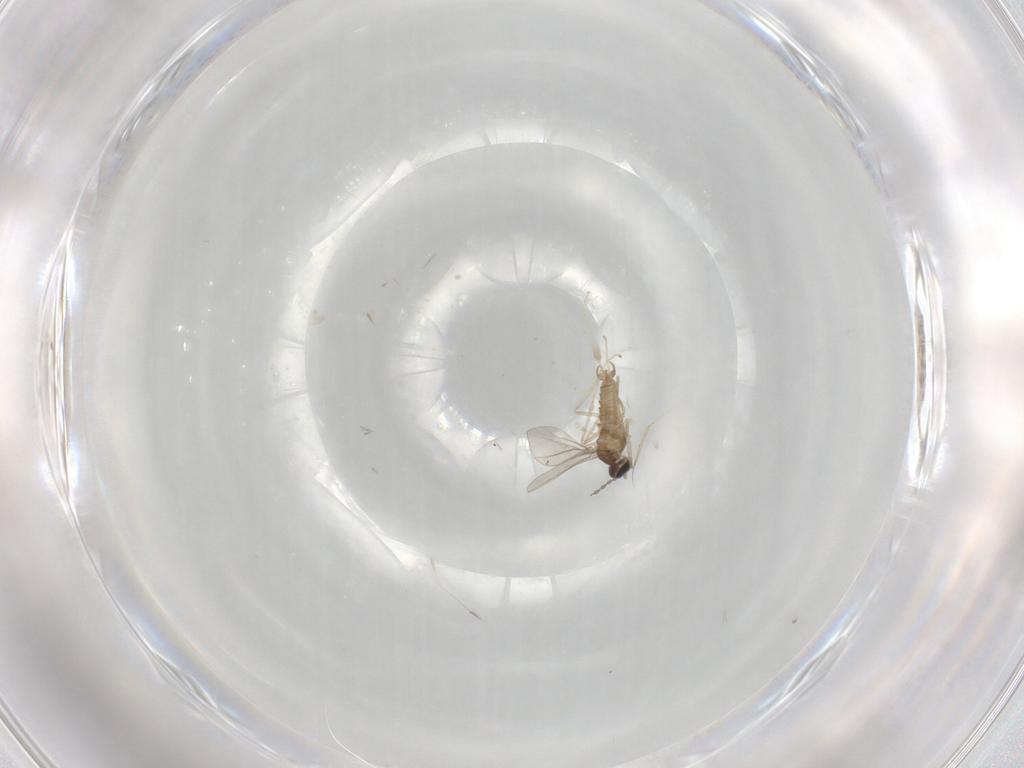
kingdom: Animalia
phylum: Arthropoda
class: Insecta
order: Diptera
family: Cecidomyiidae
